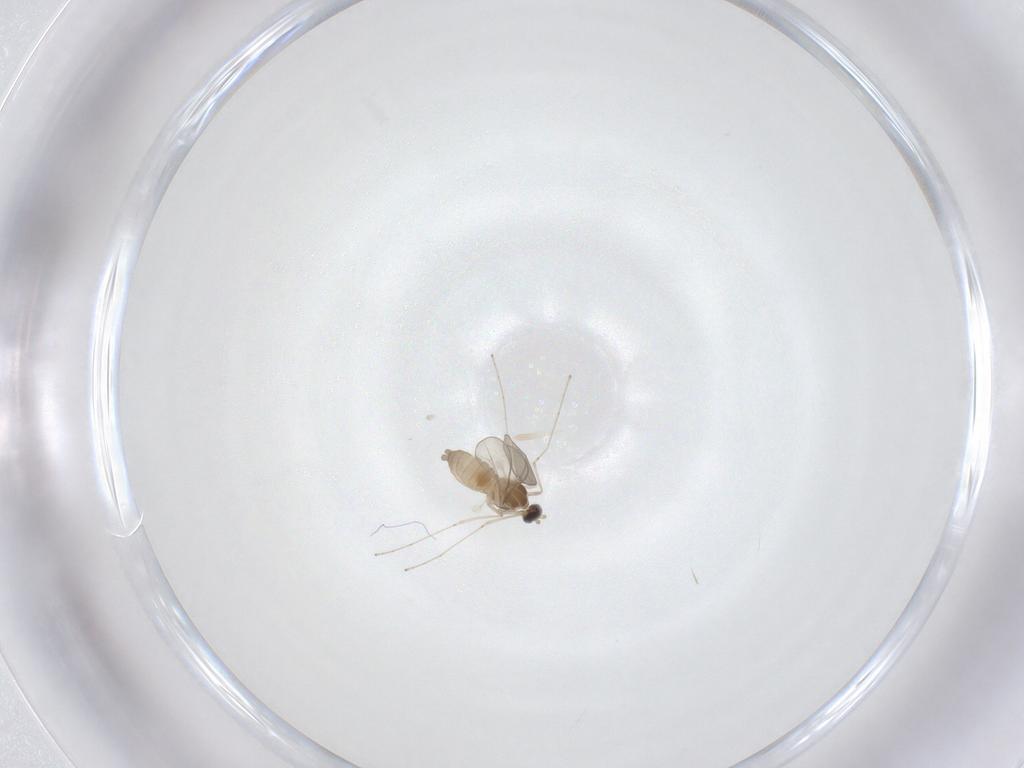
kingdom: Animalia
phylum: Arthropoda
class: Insecta
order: Diptera
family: Cecidomyiidae
